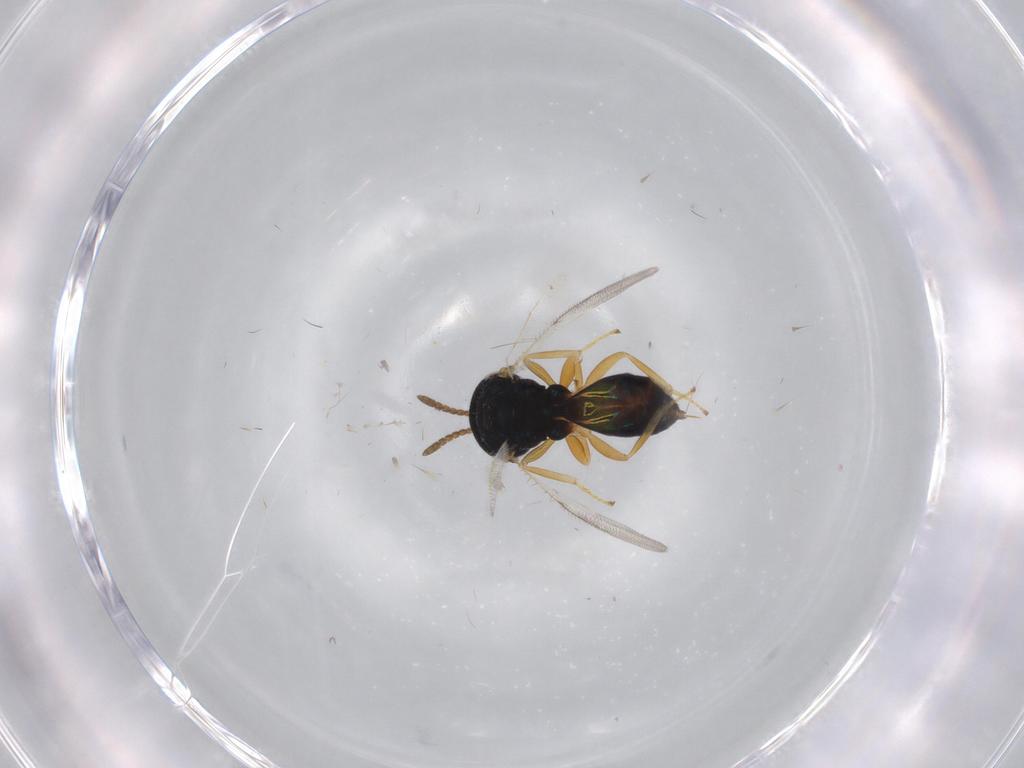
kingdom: Animalia
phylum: Arthropoda
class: Insecta
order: Hymenoptera
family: Pteromalidae
